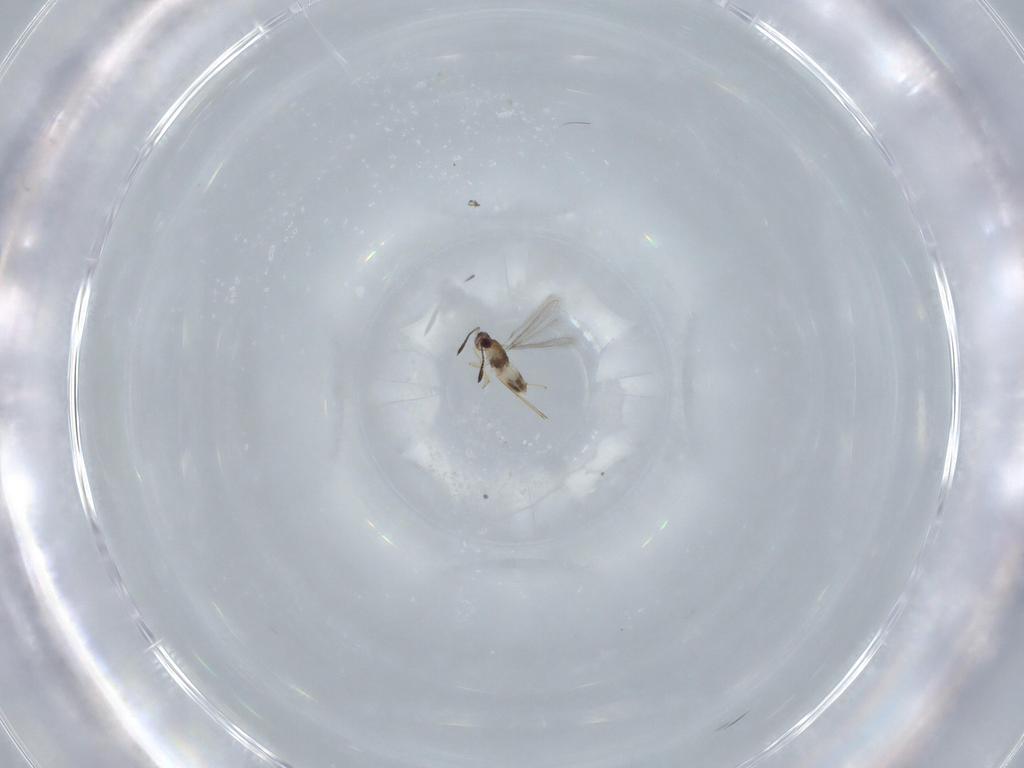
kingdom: Animalia
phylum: Arthropoda
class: Insecta
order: Hymenoptera
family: Mymaridae
